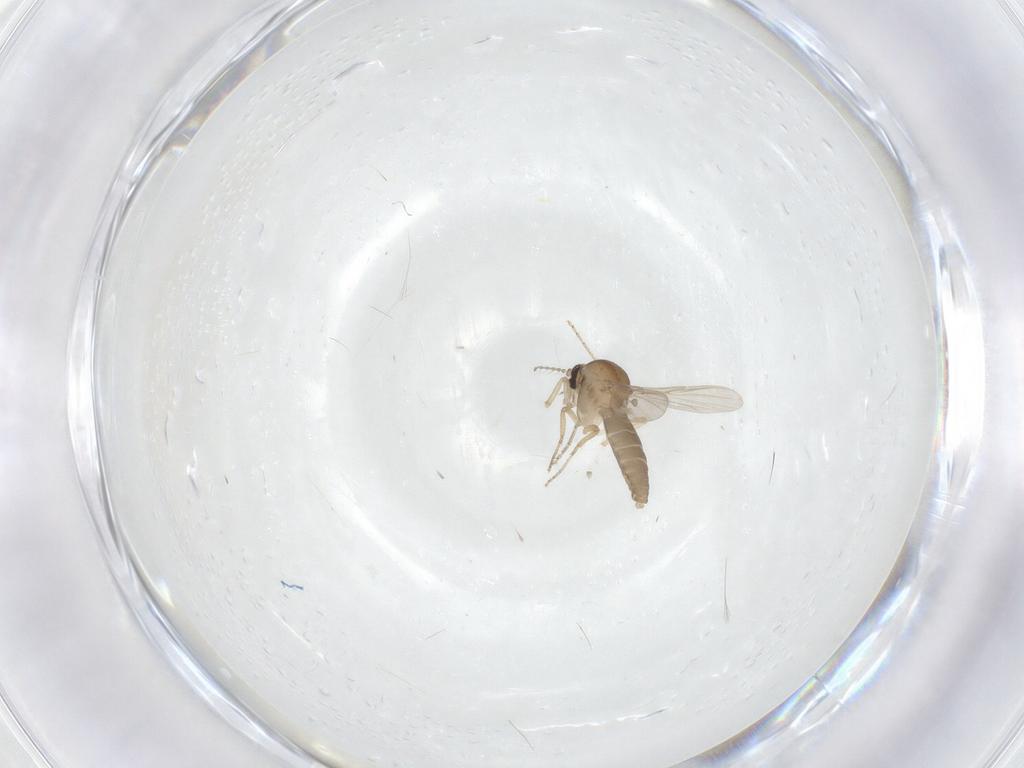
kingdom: Animalia
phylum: Arthropoda
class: Insecta
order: Diptera
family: Ceratopogonidae
